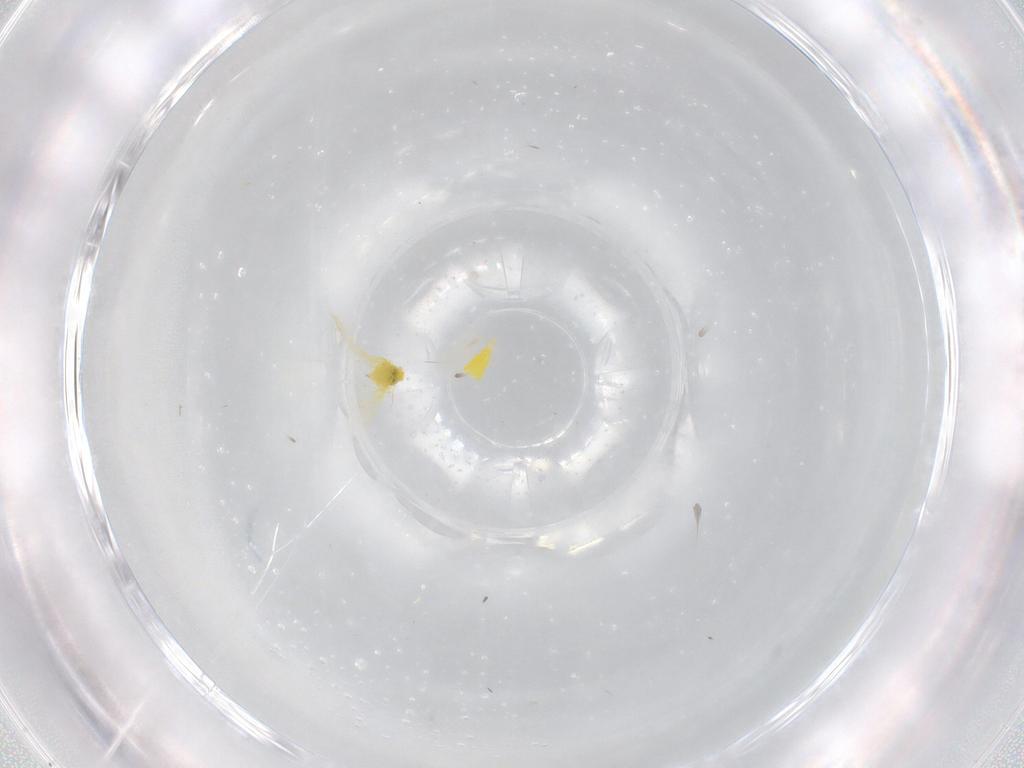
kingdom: Animalia
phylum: Arthropoda
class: Insecta
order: Hemiptera
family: Aleyrodidae
